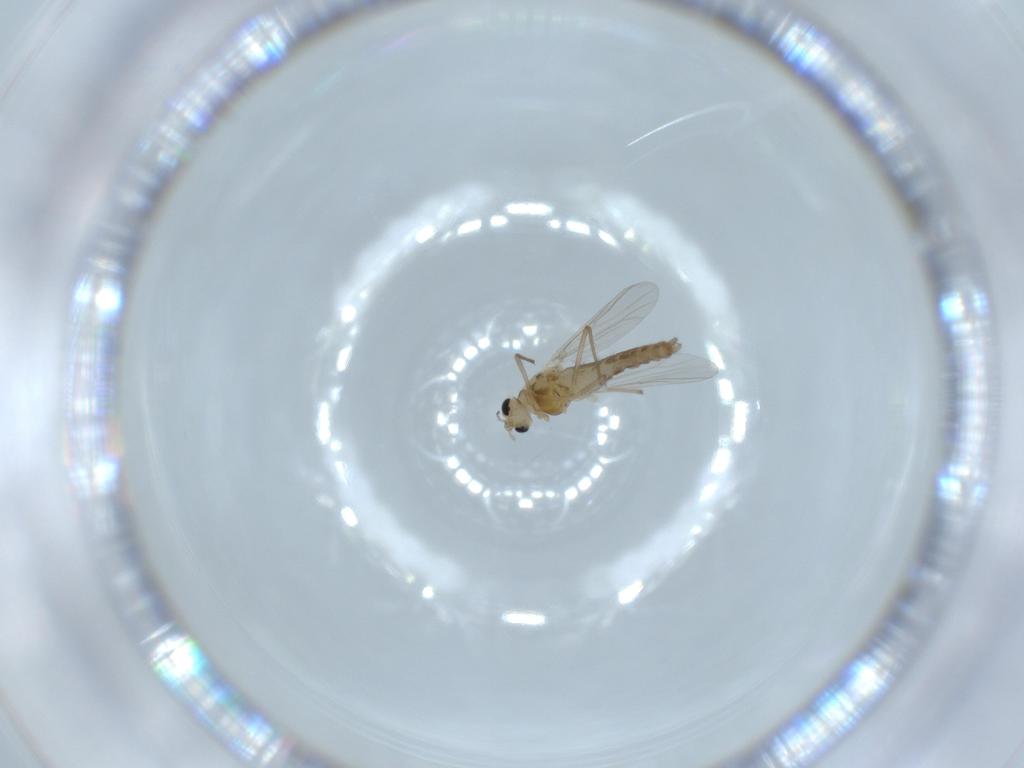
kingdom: Animalia
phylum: Arthropoda
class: Insecta
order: Diptera
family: Chironomidae
